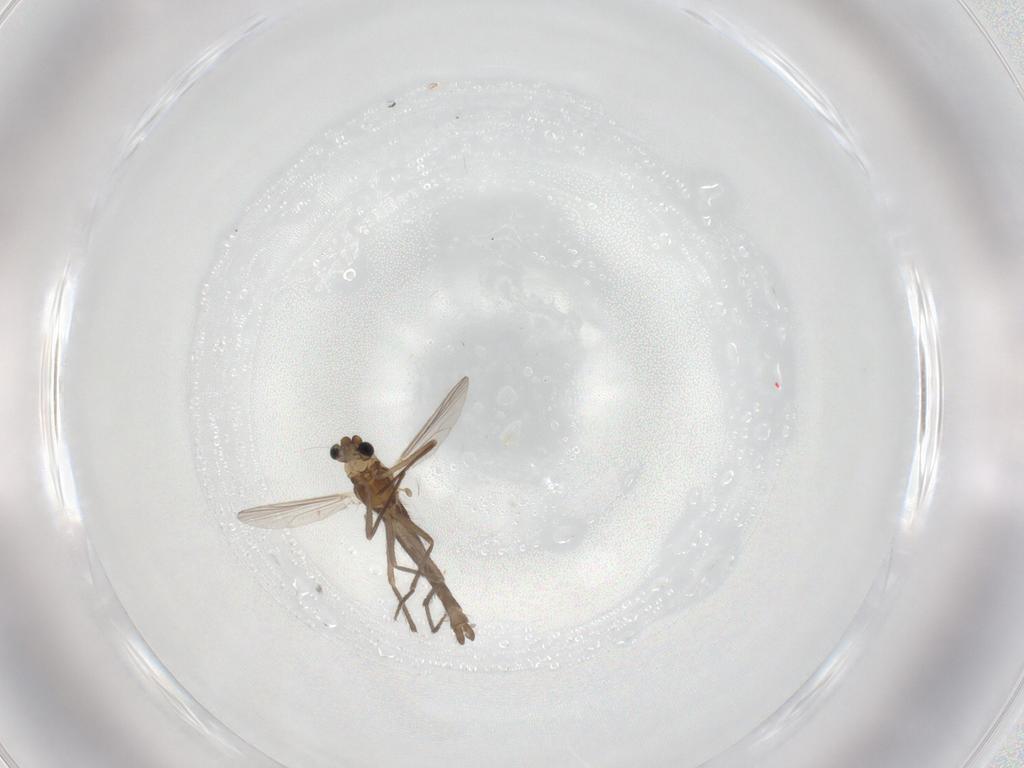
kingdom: Animalia
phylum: Arthropoda
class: Insecta
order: Diptera
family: Chironomidae
